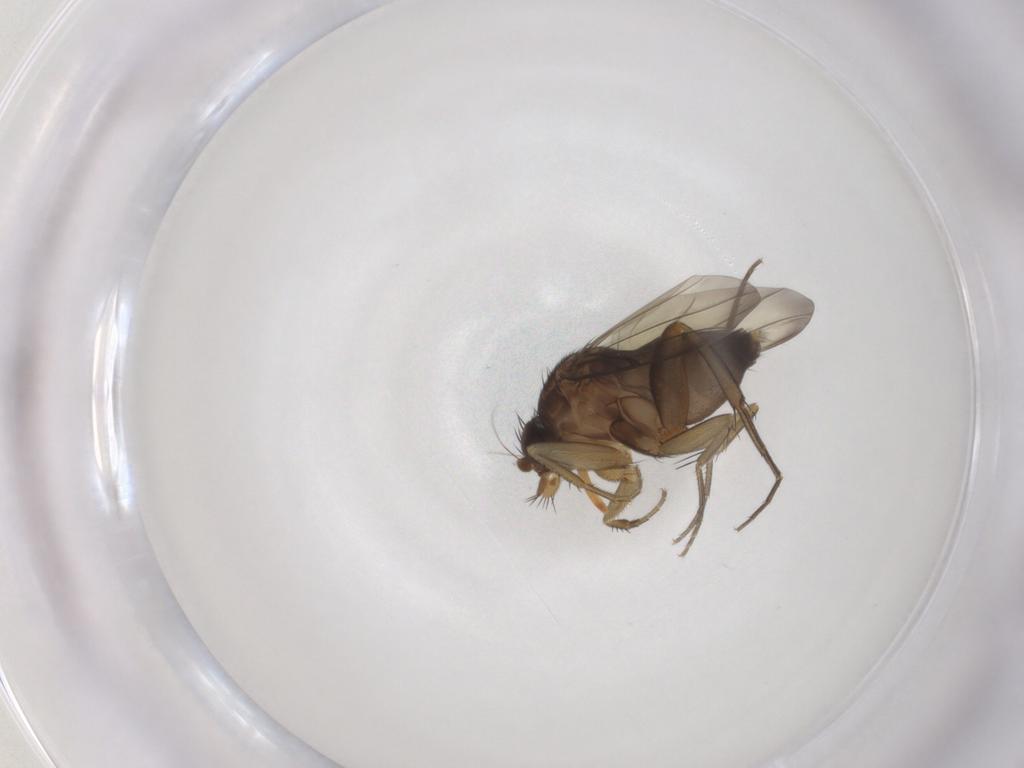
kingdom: Animalia
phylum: Arthropoda
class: Insecta
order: Diptera
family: Phoridae
